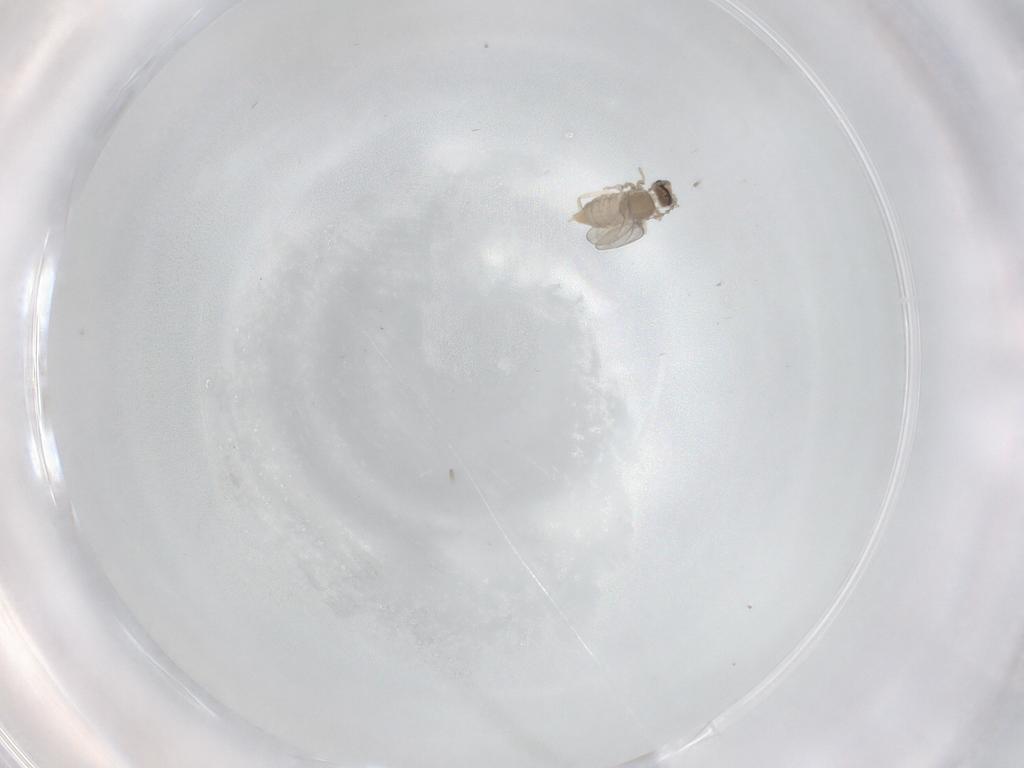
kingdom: Animalia
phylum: Arthropoda
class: Insecta
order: Diptera
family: Cecidomyiidae
